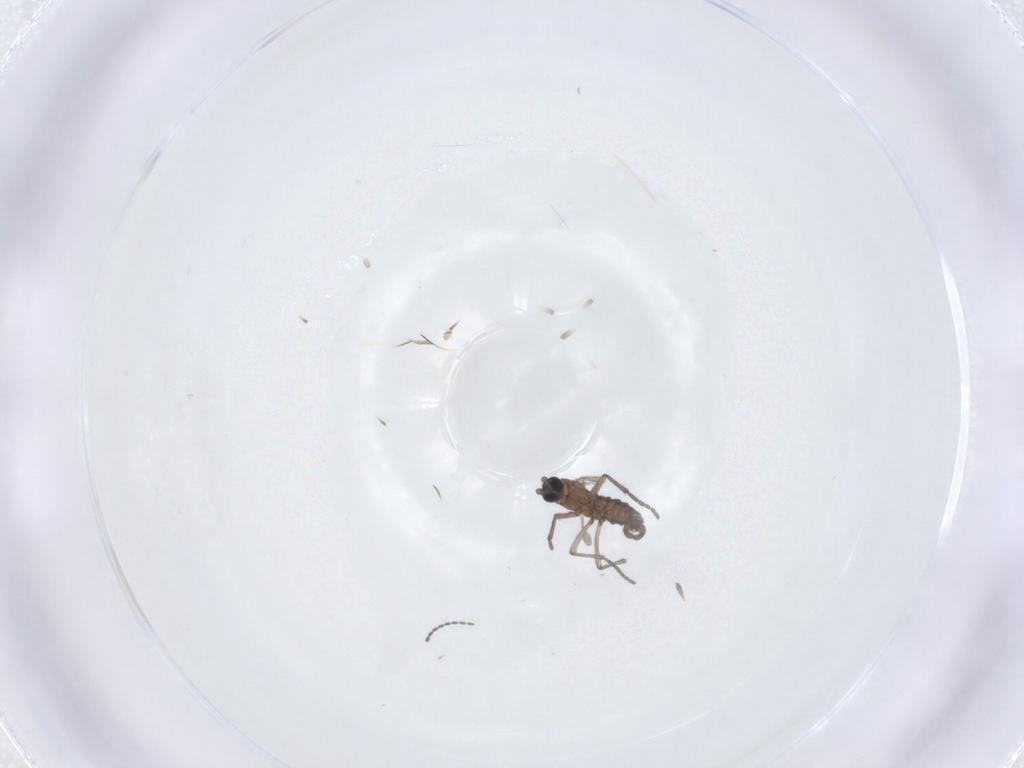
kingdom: Animalia
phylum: Arthropoda
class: Insecta
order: Diptera
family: Sciaridae
